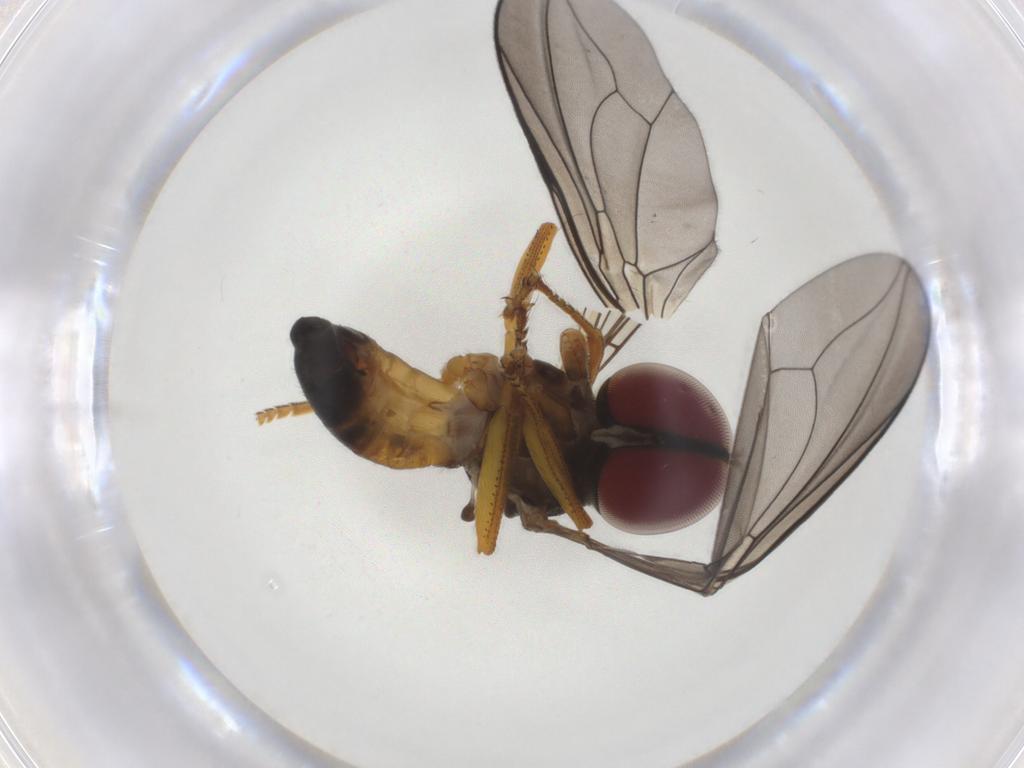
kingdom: Animalia
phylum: Arthropoda
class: Insecta
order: Diptera
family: Pipunculidae
